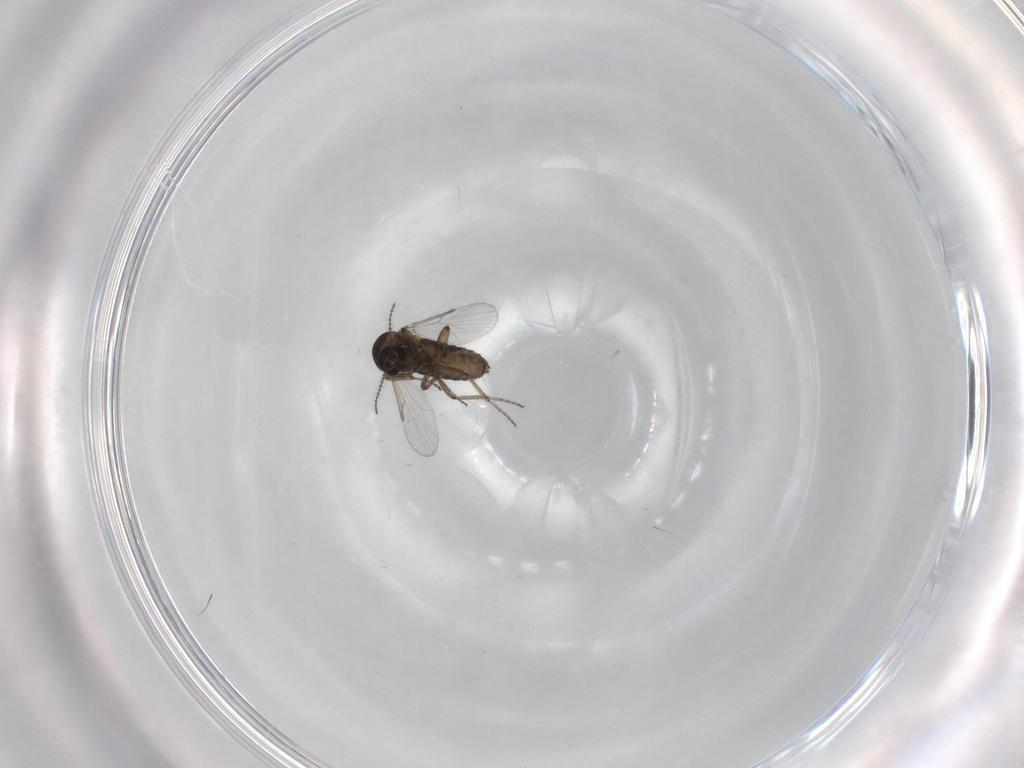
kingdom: Animalia
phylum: Arthropoda
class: Insecta
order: Diptera
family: Ceratopogonidae
